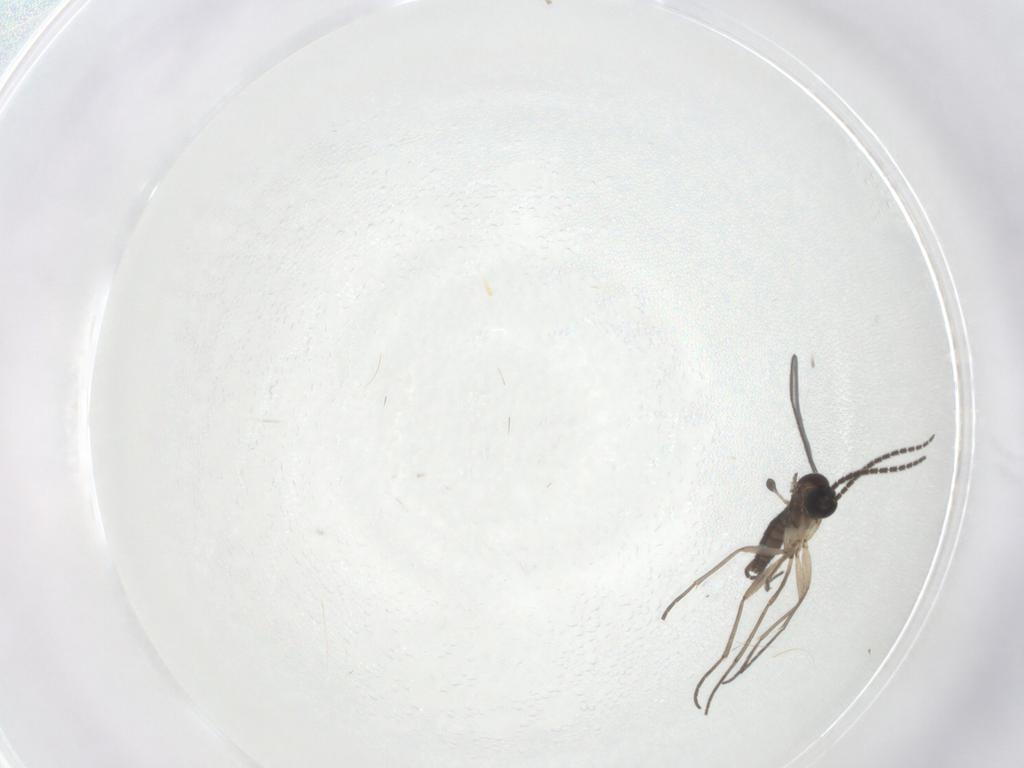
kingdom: Animalia
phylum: Arthropoda
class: Insecta
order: Diptera
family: Sciaridae
